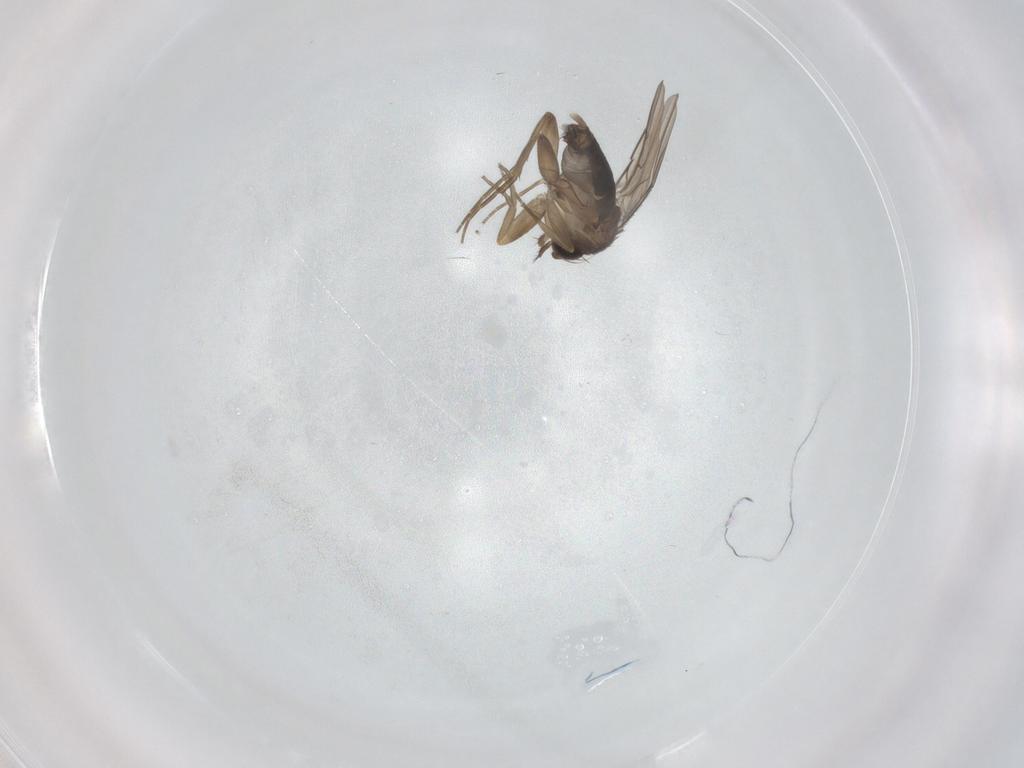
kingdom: Animalia
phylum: Arthropoda
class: Insecta
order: Diptera
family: Phoridae
